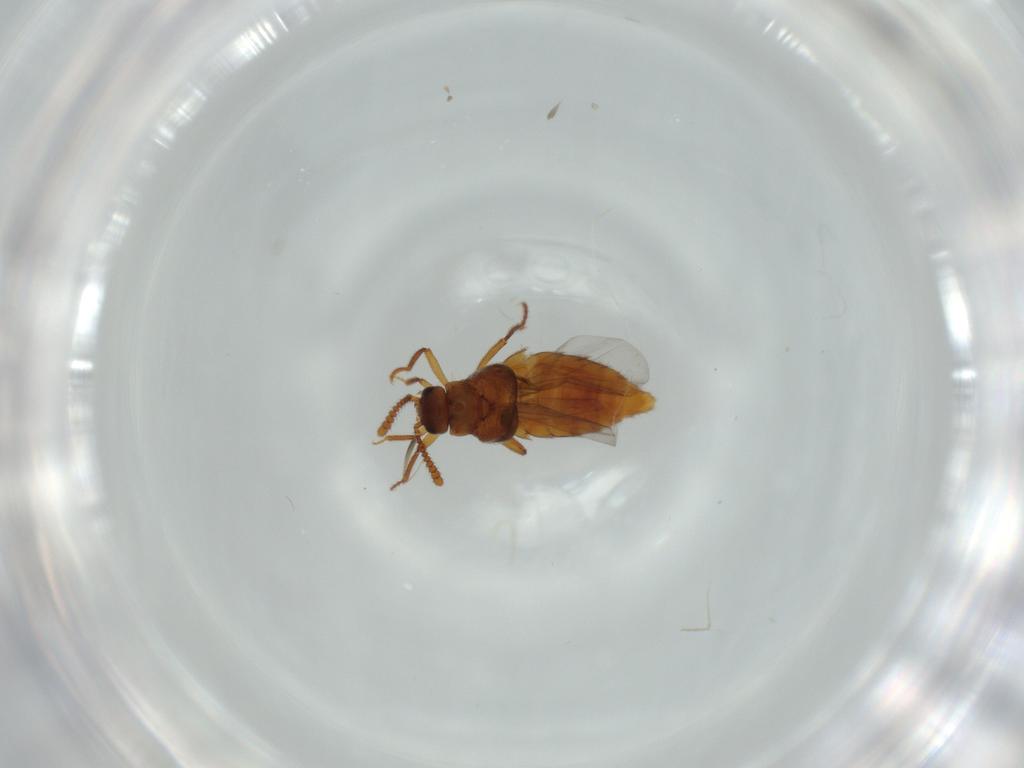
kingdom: Animalia
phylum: Arthropoda
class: Insecta
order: Coleoptera
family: Staphylinidae
